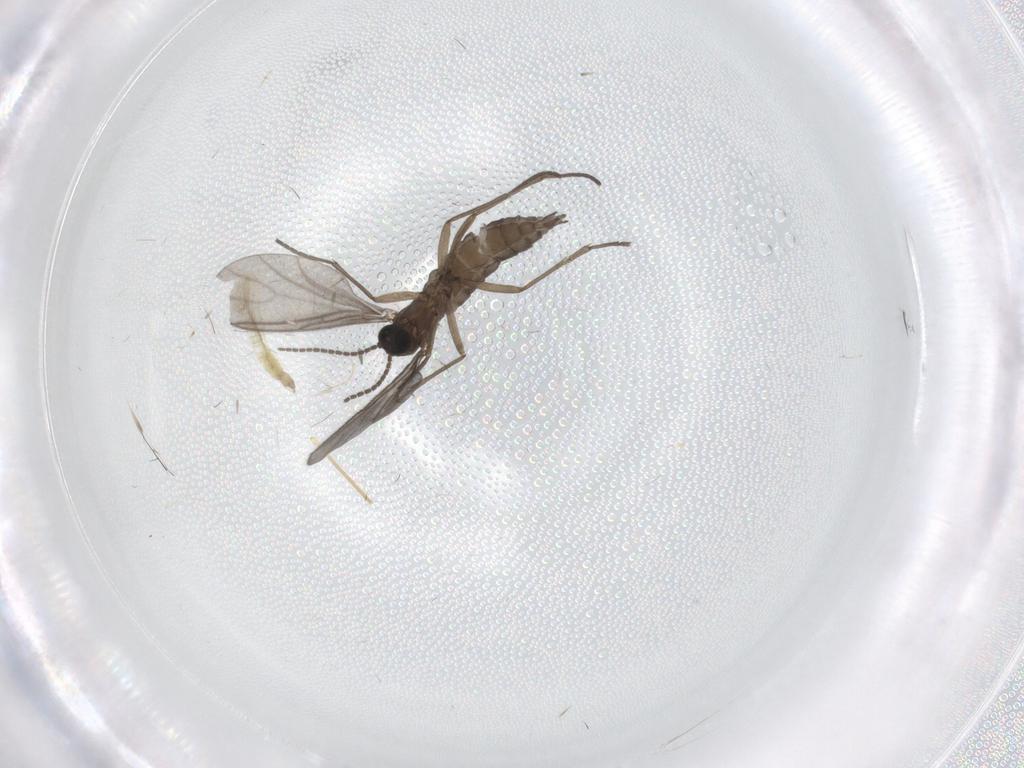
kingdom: Animalia
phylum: Arthropoda
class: Insecta
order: Diptera
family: Sciaridae
